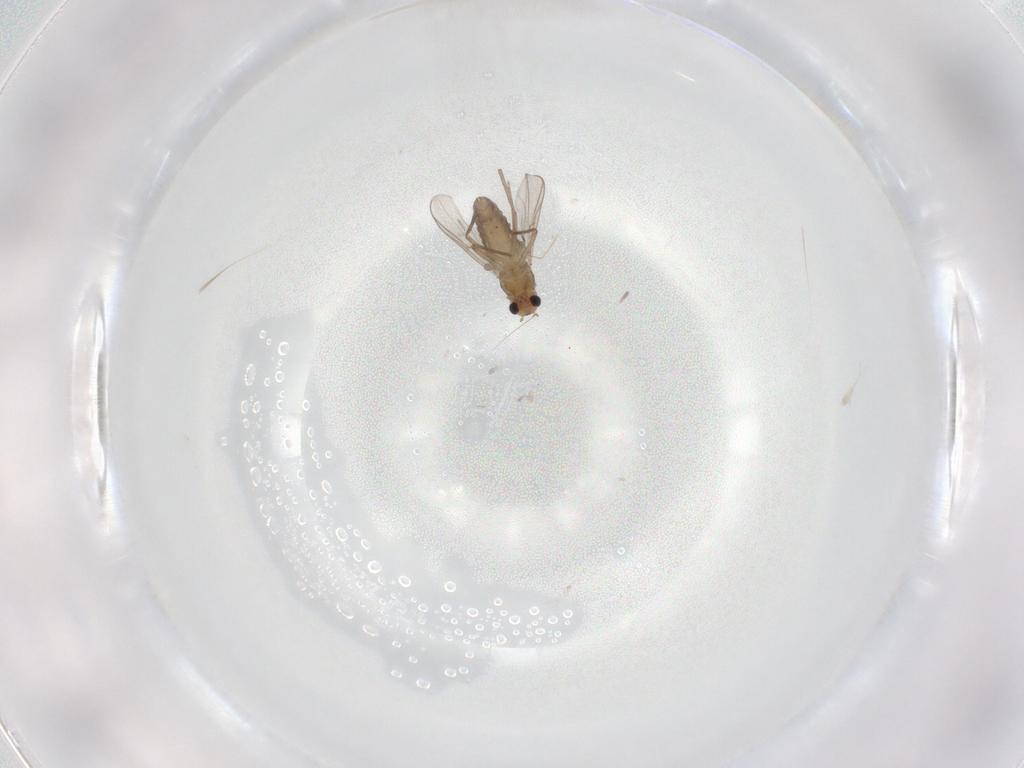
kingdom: Animalia
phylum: Arthropoda
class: Insecta
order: Diptera
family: Chironomidae
